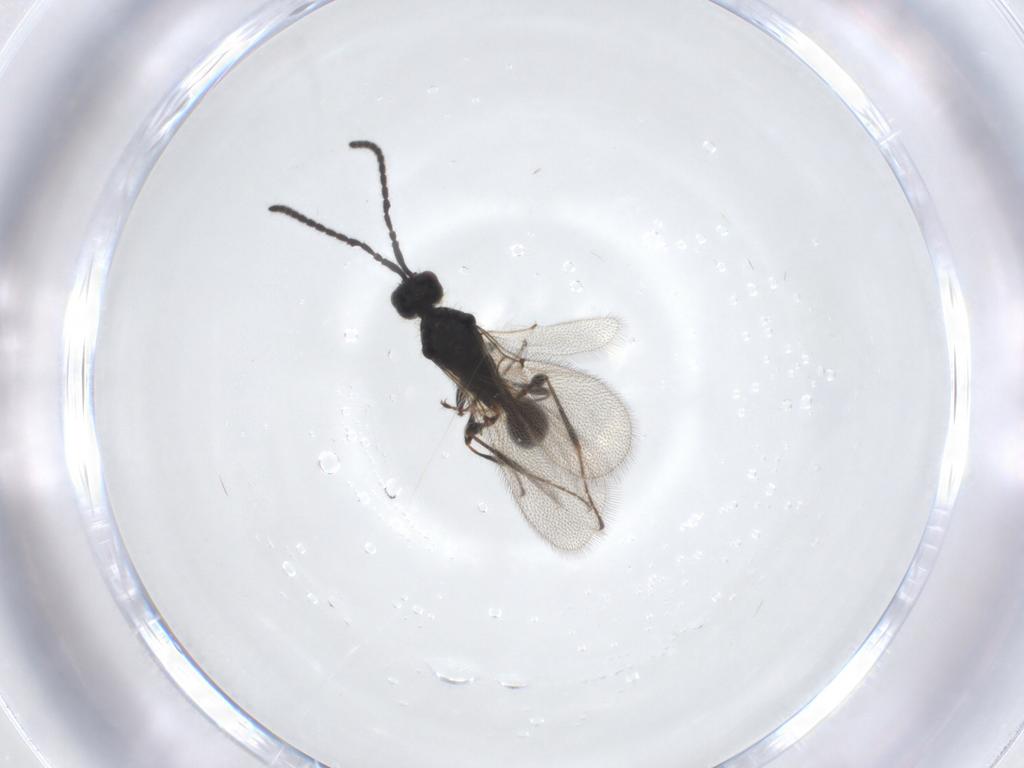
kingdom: Animalia
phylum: Arthropoda
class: Insecta
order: Hymenoptera
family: Diapriidae
